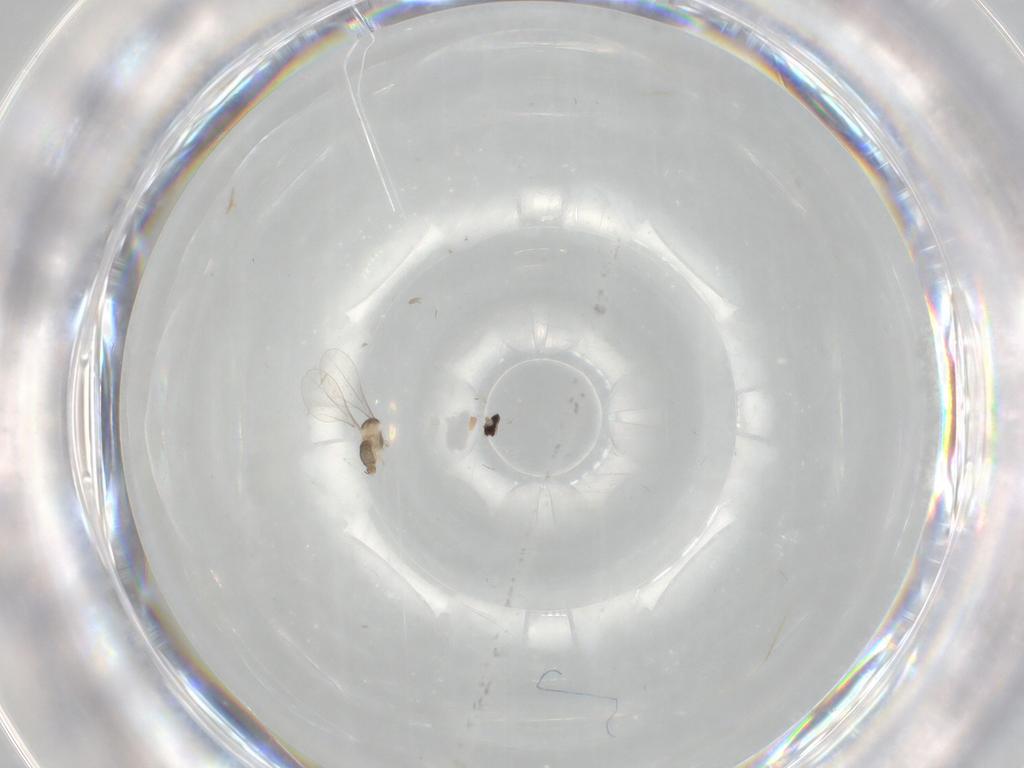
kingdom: Animalia
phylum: Arthropoda
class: Insecta
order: Diptera
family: Cecidomyiidae
